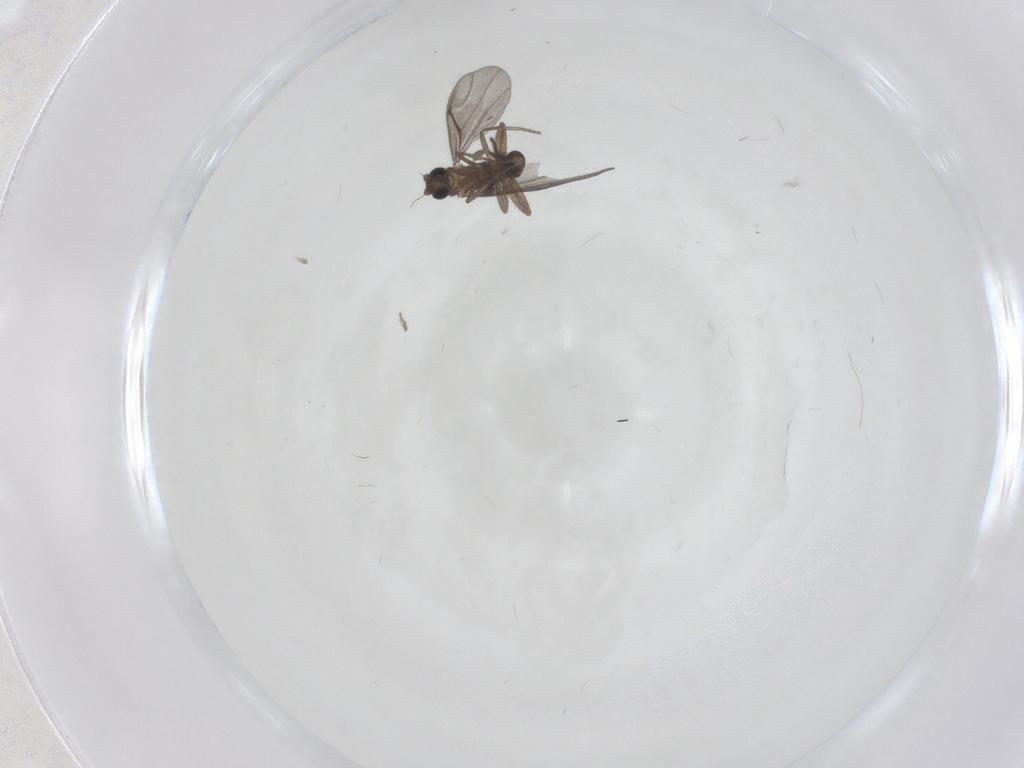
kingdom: Animalia
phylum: Arthropoda
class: Insecta
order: Diptera
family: Phoridae
